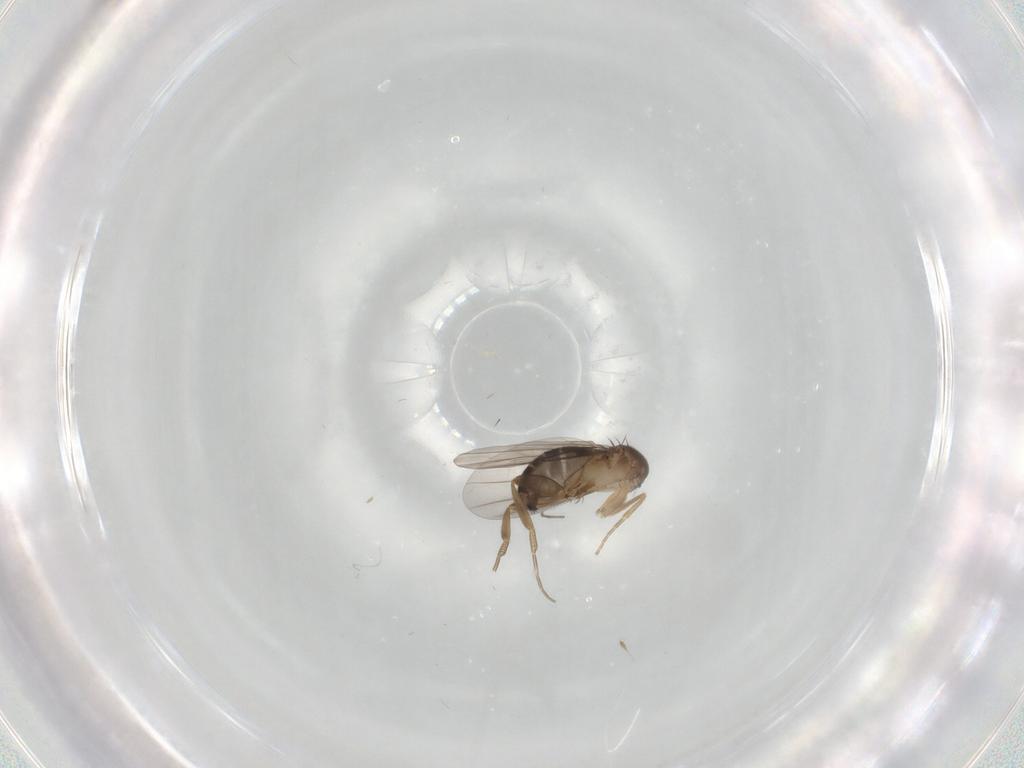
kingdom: Animalia
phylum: Arthropoda
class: Insecta
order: Diptera
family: Phoridae
